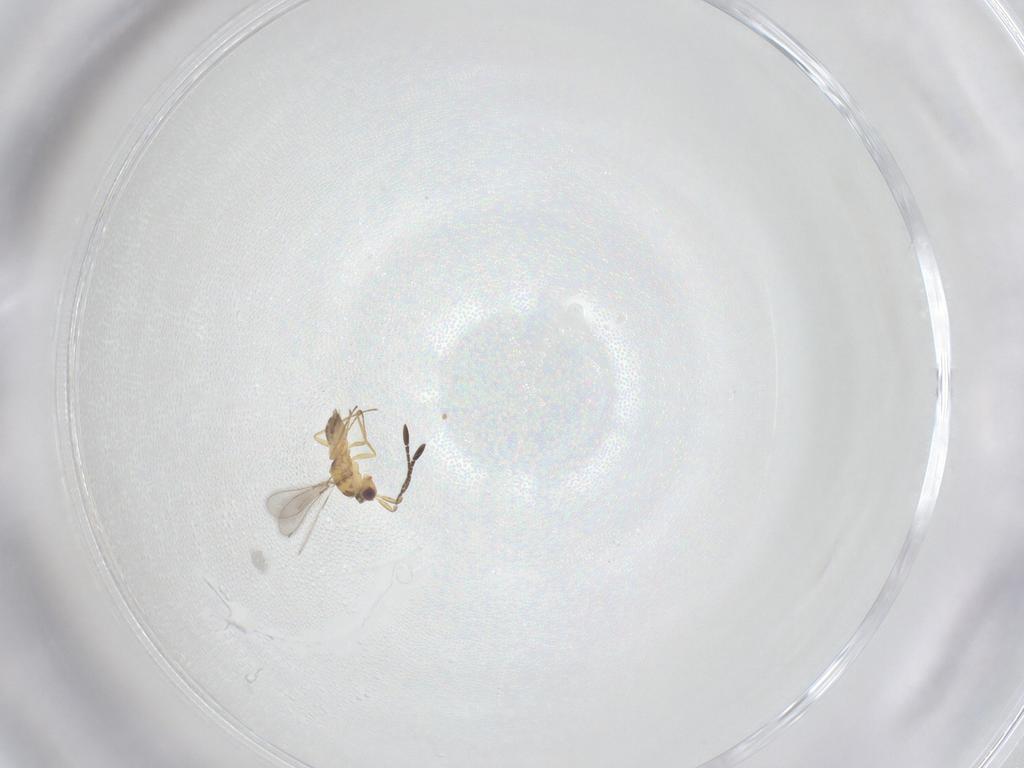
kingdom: Animalia
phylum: Arthropoda
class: Insecta
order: Hymenoptera
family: Mymaridae
